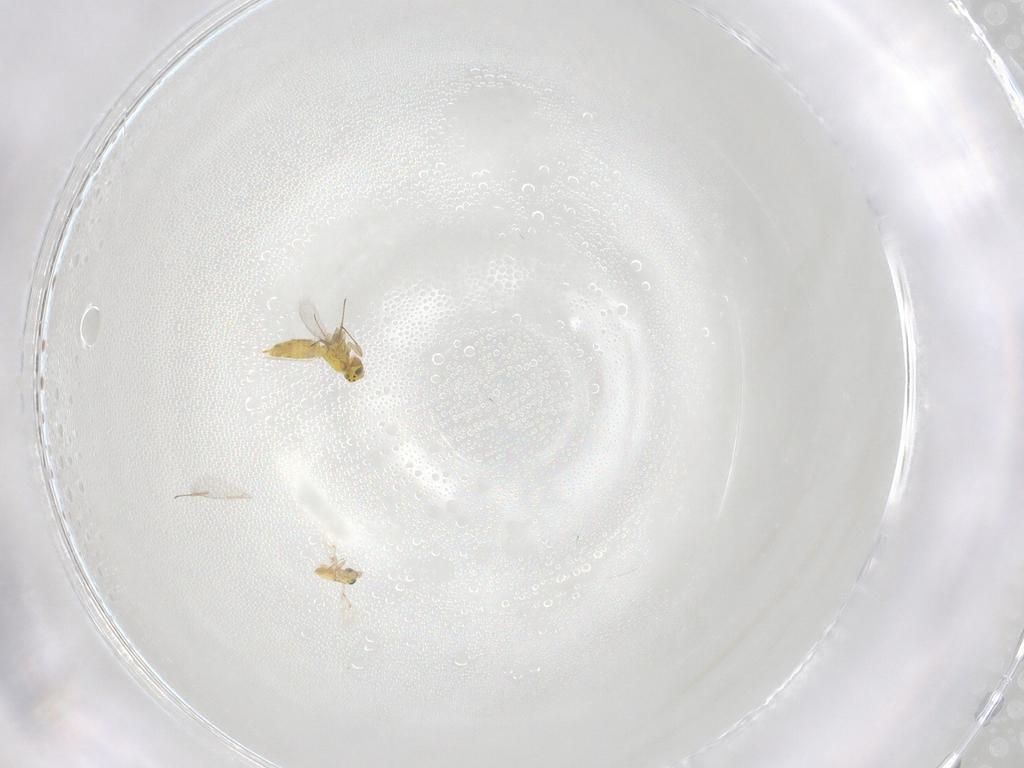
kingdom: Animalia
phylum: Arthropoda
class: Insecta
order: Hymenoptera
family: Aphelinidae
